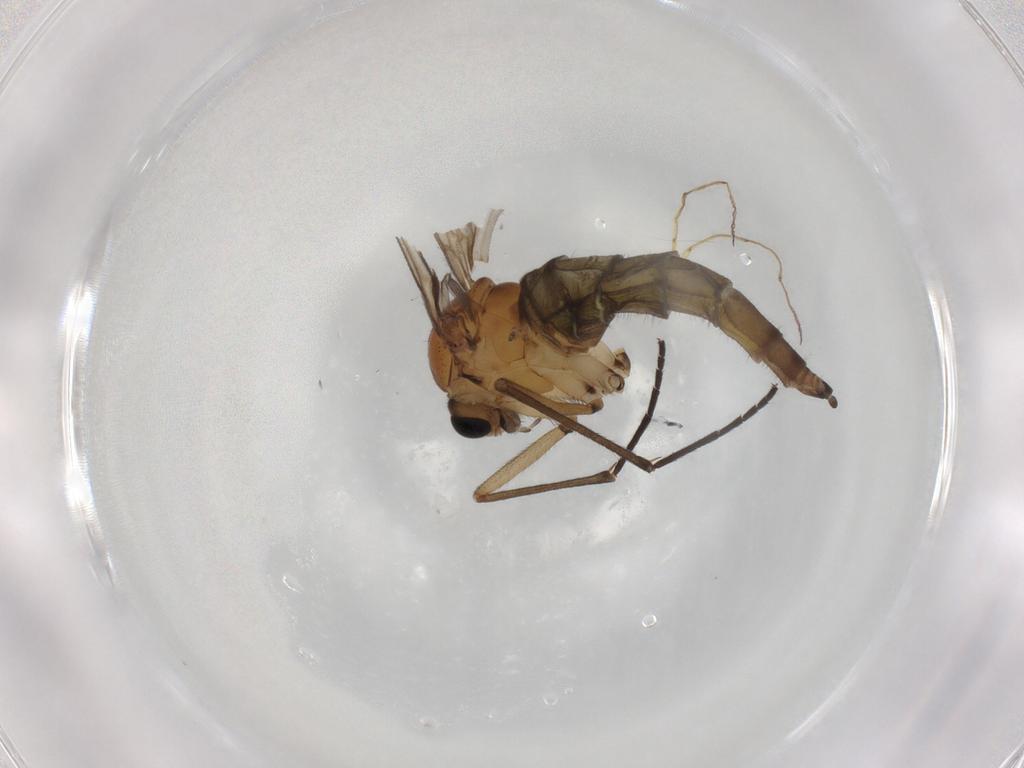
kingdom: Animalia
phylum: Arthropoda
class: Insecta
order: Diptera
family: Sciaridae
